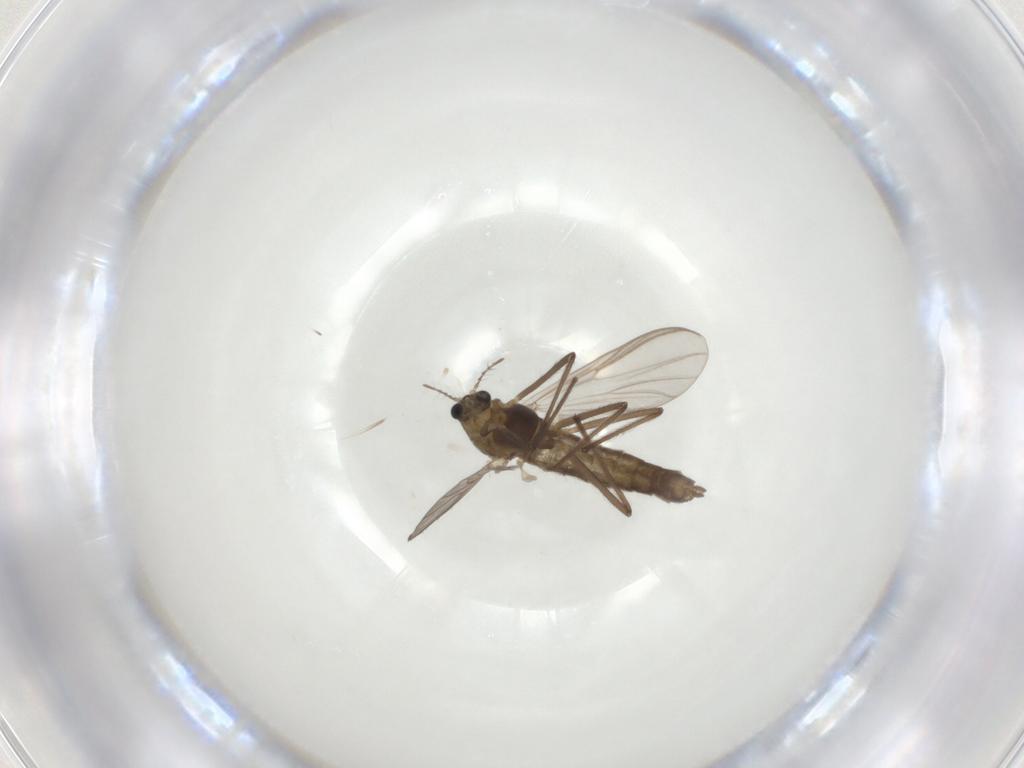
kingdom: Animalia
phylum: Arthropoda
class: Insecta
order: Diptera
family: Chironomidae
